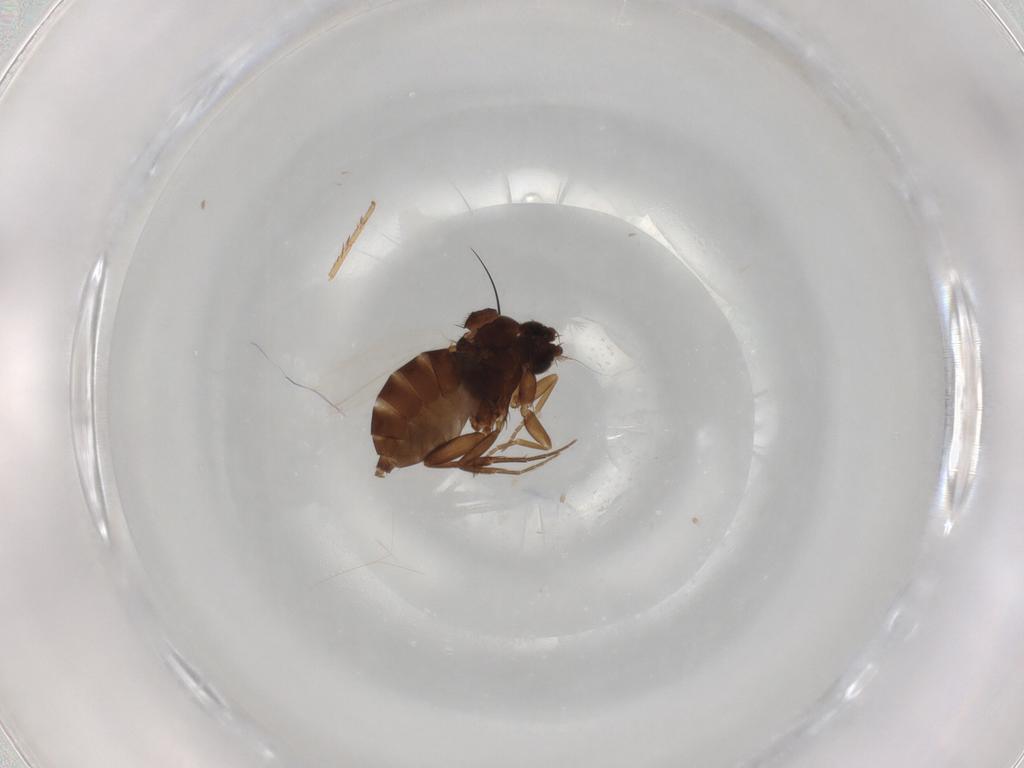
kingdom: Animalia
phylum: Arthropoda
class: Insecta
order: Diptera
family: Phoridae
